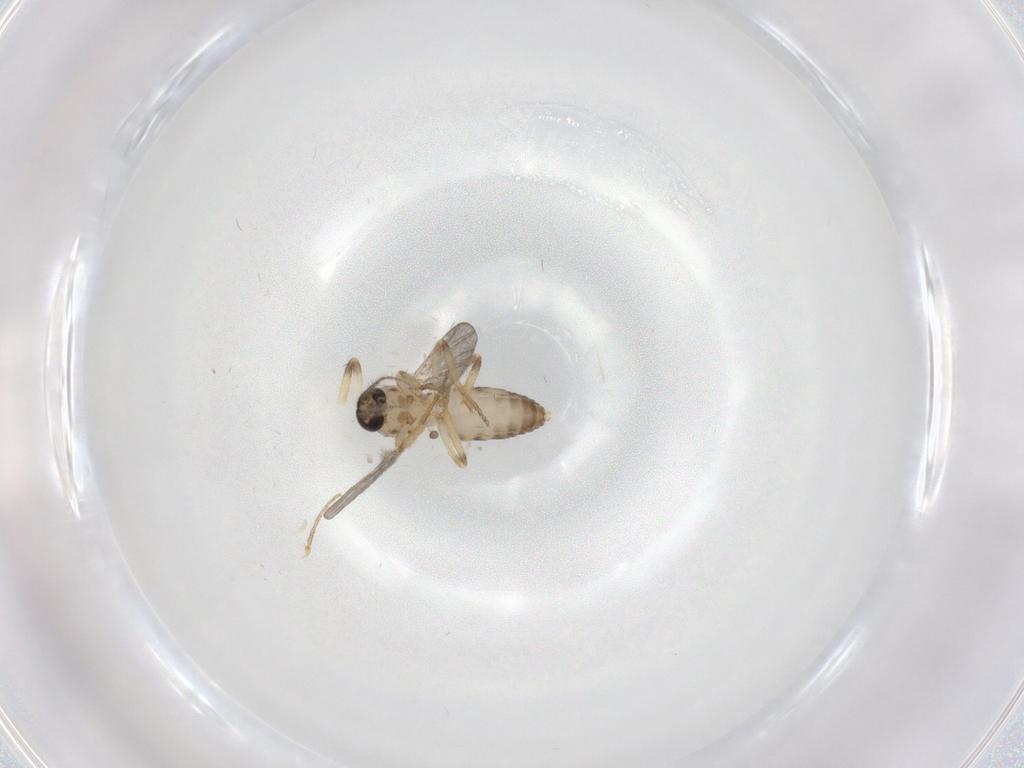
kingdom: Animalia
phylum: Arthropoda
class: Insecta
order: Diptera
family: Ceratopogonidae
